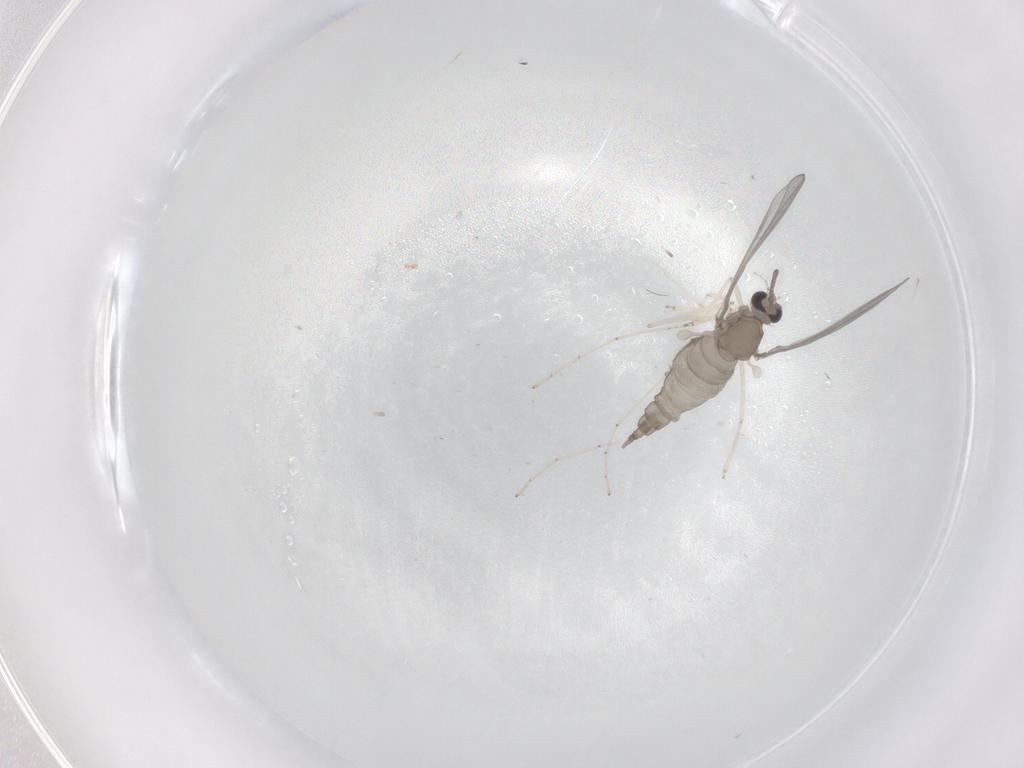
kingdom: Animalia
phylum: Arthropoda
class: Insecta
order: Diptera
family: Cecidomyiidae
